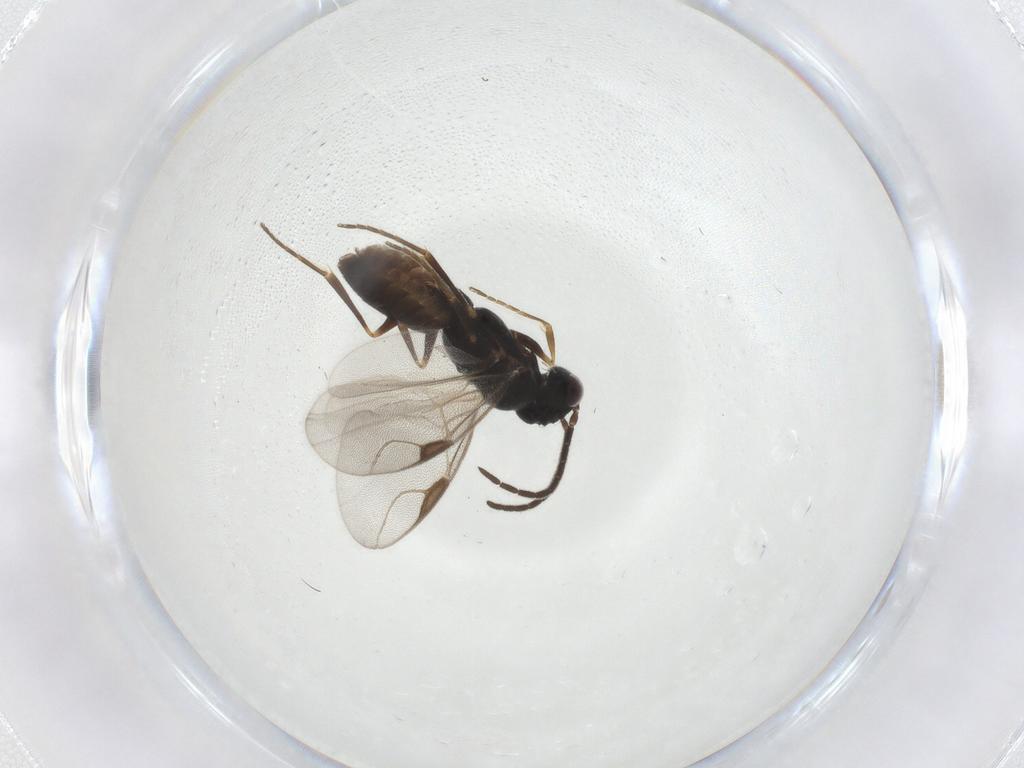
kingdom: Animalia
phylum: Arthropoda
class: Insecta
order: Hymenoptera
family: Dryinidae
